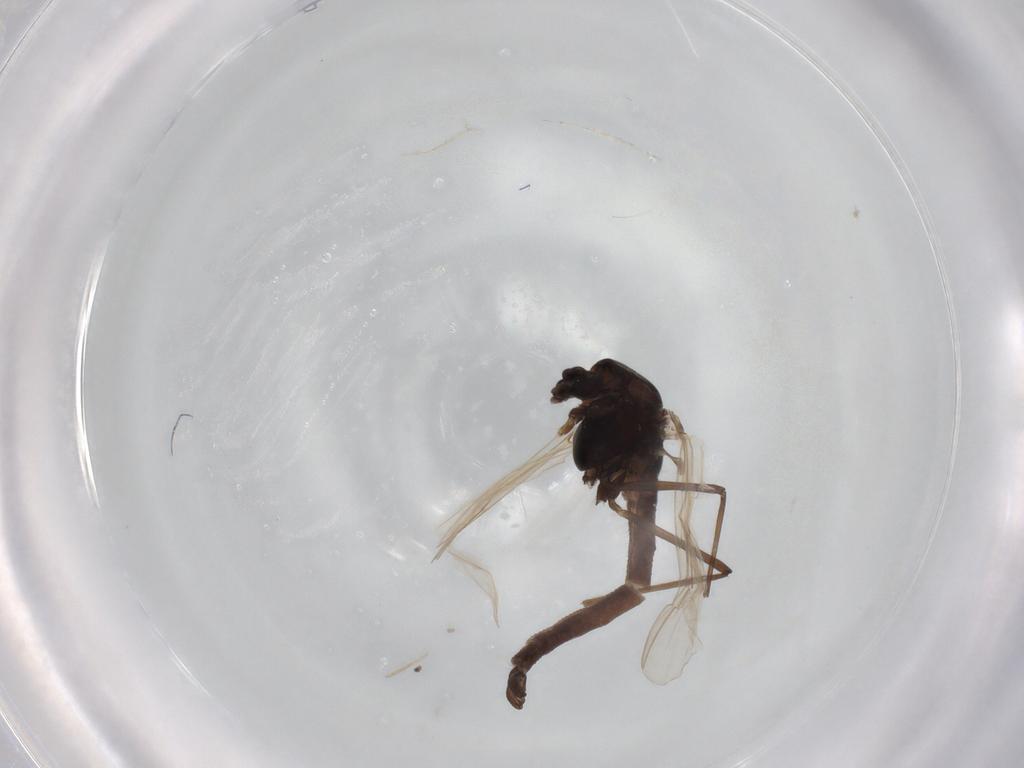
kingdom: Animalia
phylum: Arthropoda
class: Insecta
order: Diptera
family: Chironomidae
